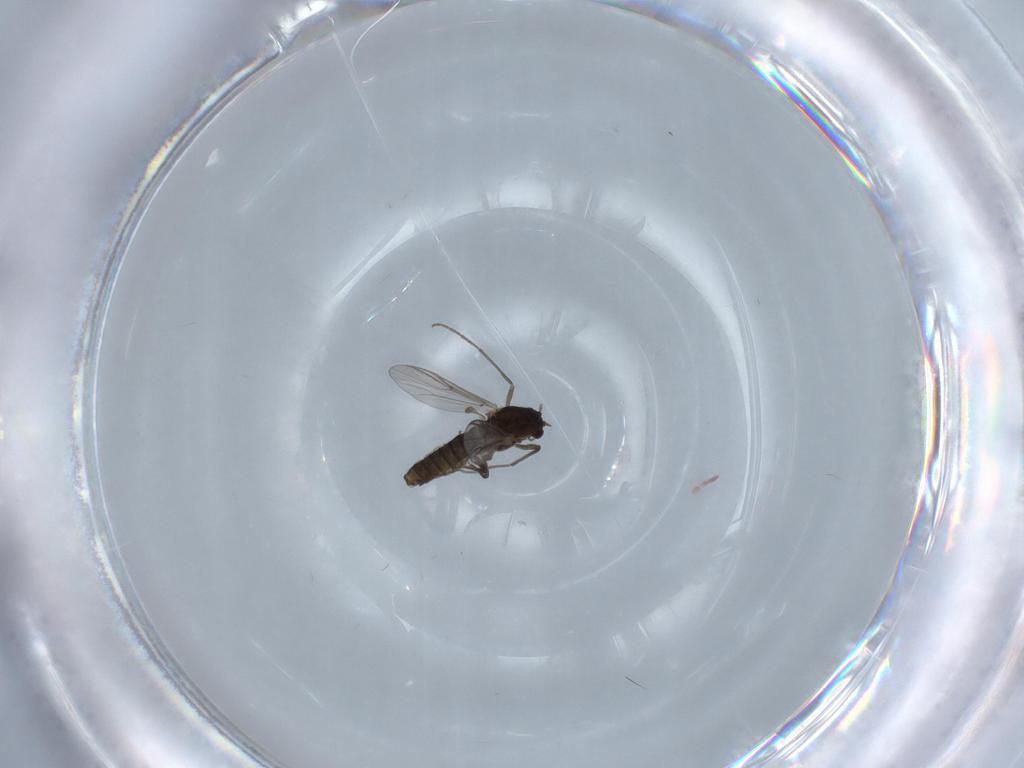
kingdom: Animalia
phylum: Arthropoda
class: Insecta
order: Diptera
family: Chironomidae
